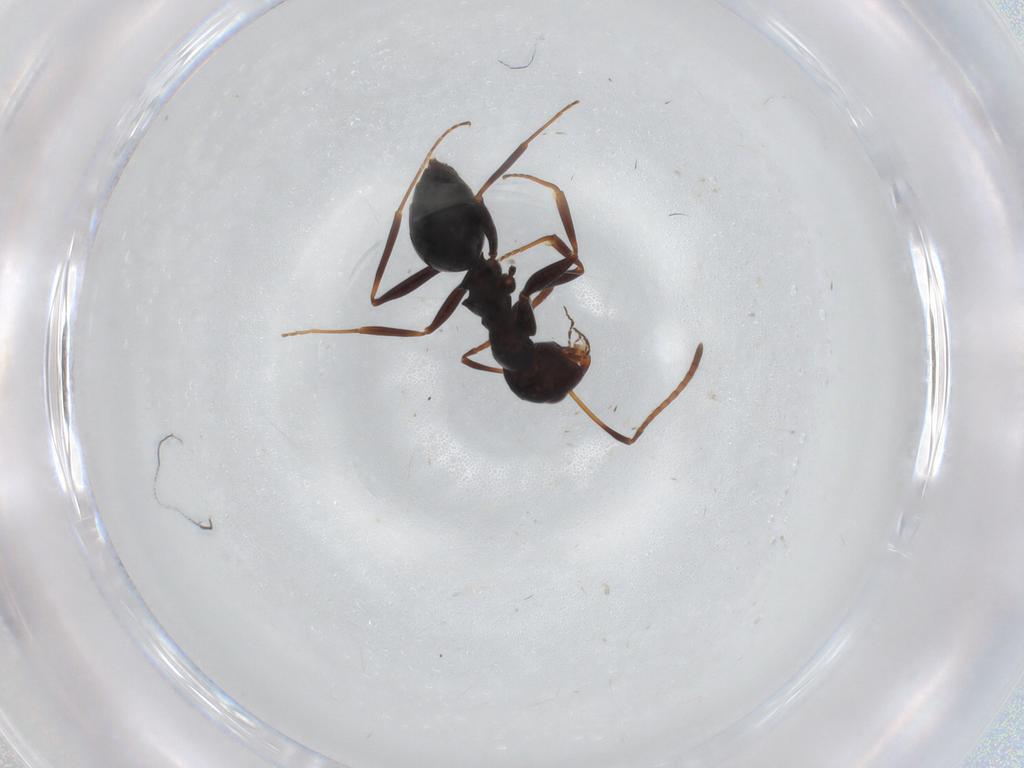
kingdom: Animalia
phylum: Arthropoda
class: Insecta
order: Hymenoptera
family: Formicidae
